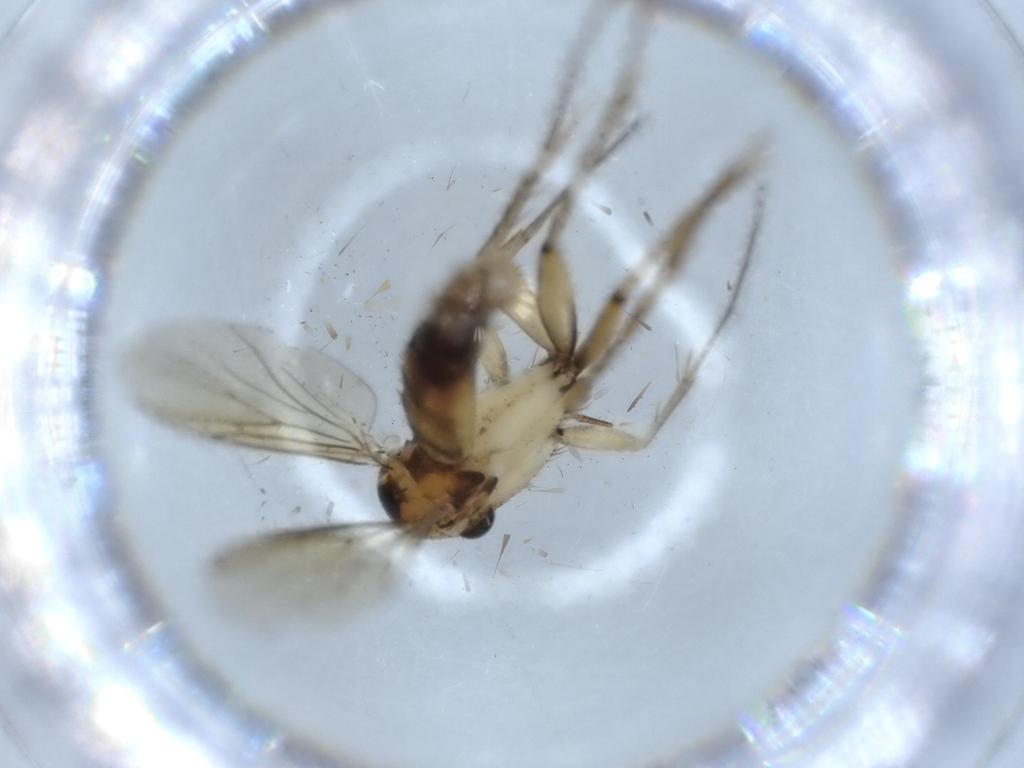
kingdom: Animalia
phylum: Arthropoda
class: Insecta
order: Diptera
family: Ceratopogonidae
